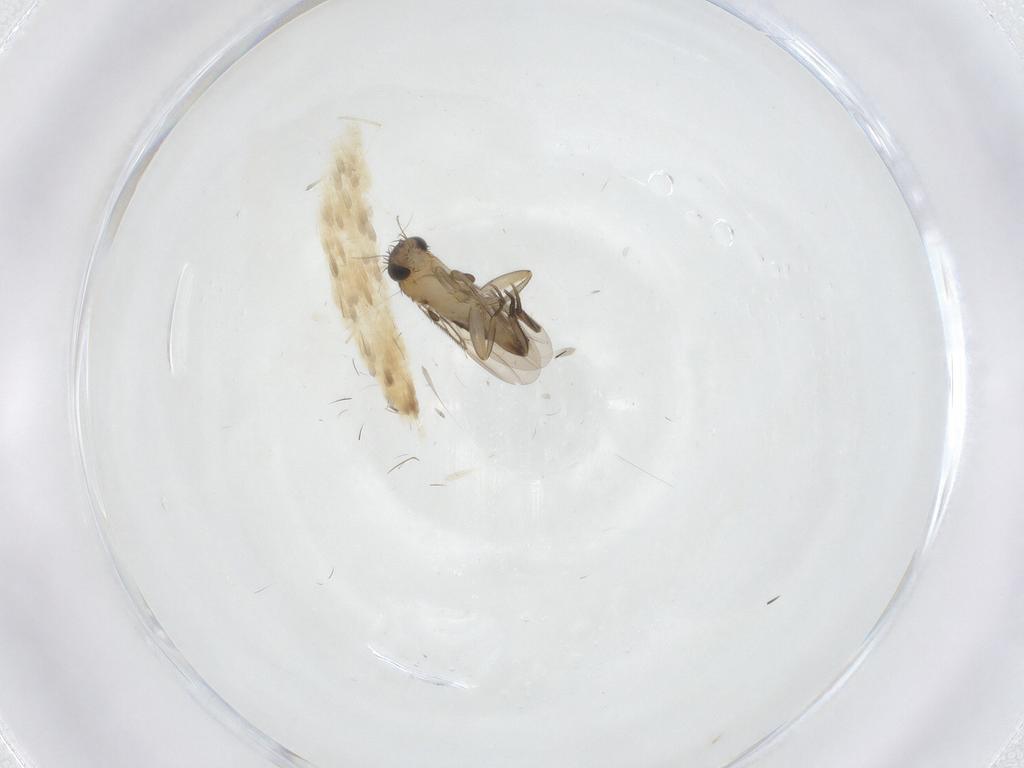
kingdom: Animalia
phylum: Arthropoda
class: Insecta
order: Diptera
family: Phoridae
